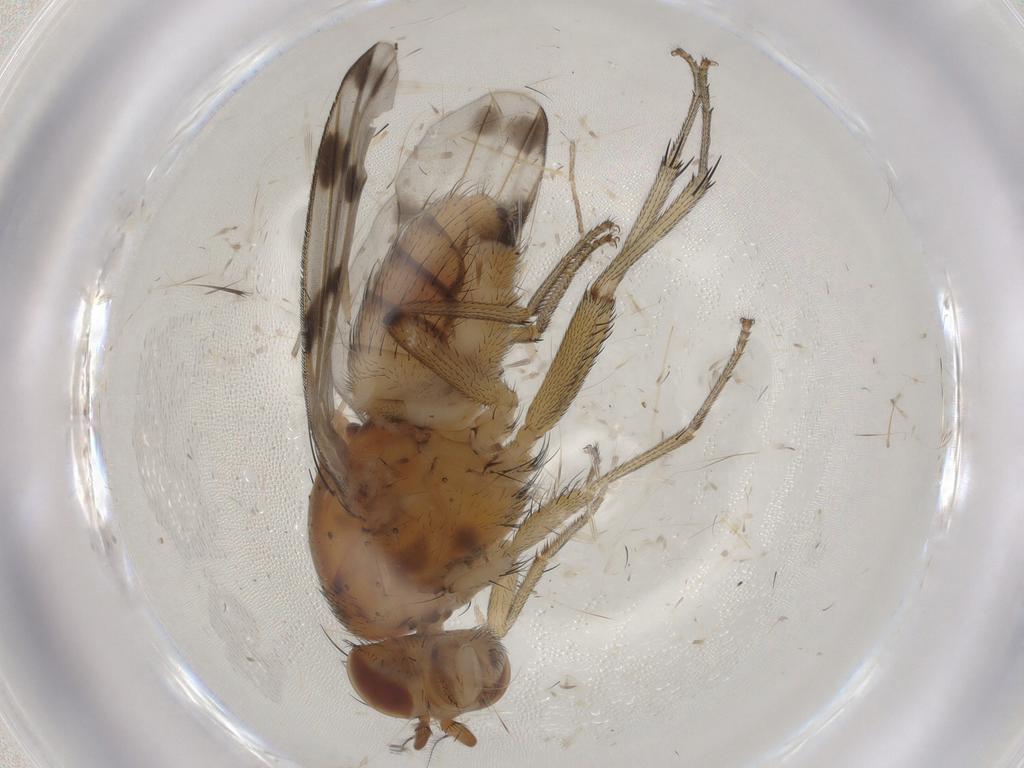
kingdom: Animalia
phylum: Arthropoda
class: Insecta
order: Diptera
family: Lauxaniidae
